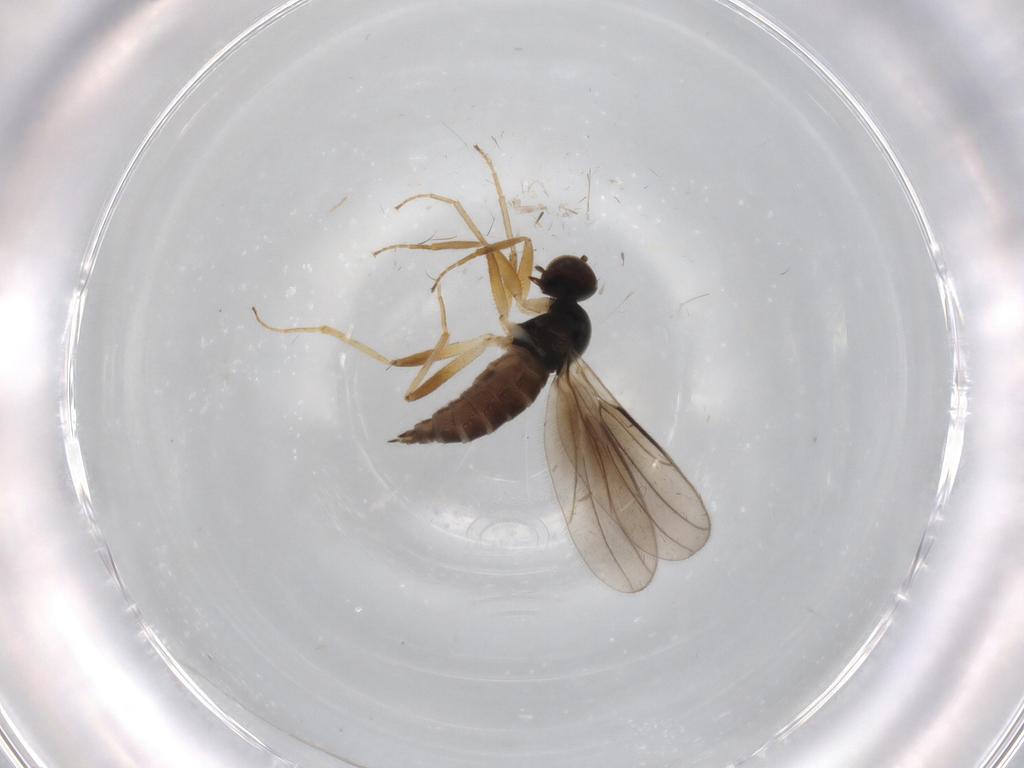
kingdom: Animalia
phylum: Arthropoda
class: Insecta
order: Diptera
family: Hybotidae
